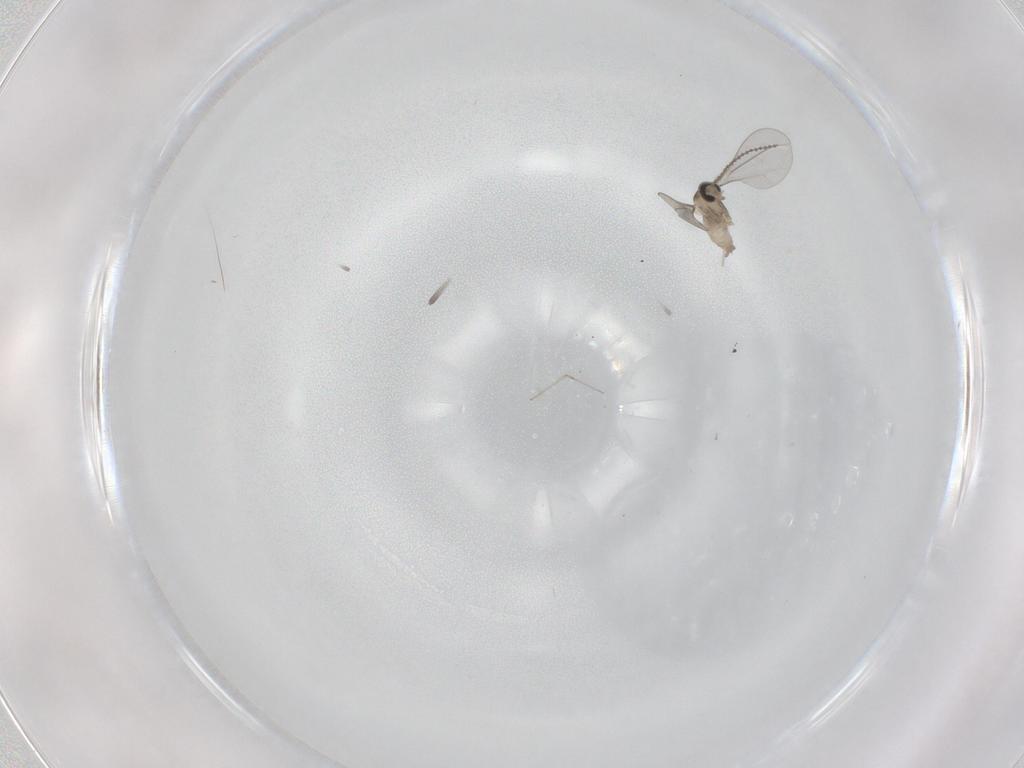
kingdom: Animalia
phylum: Arthropoda
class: Insecta
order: Diptera
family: Cecidomyiidae
